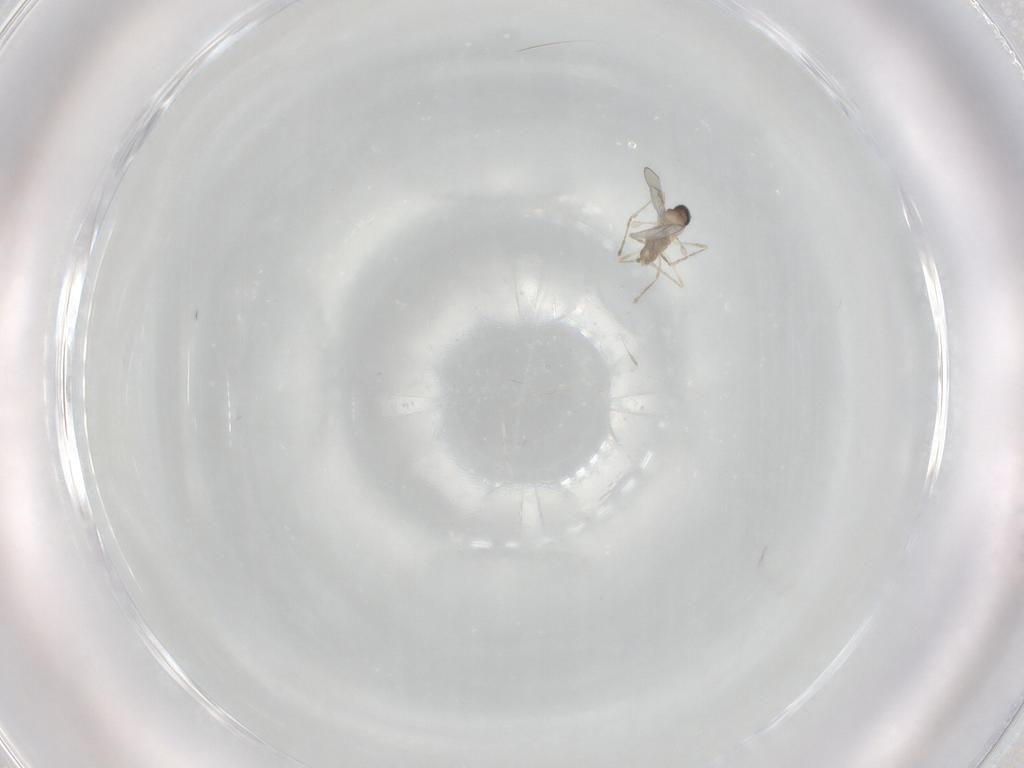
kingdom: Animalia
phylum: Arthropoda
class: Insecta
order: Diptera
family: Cecidomyiidae
